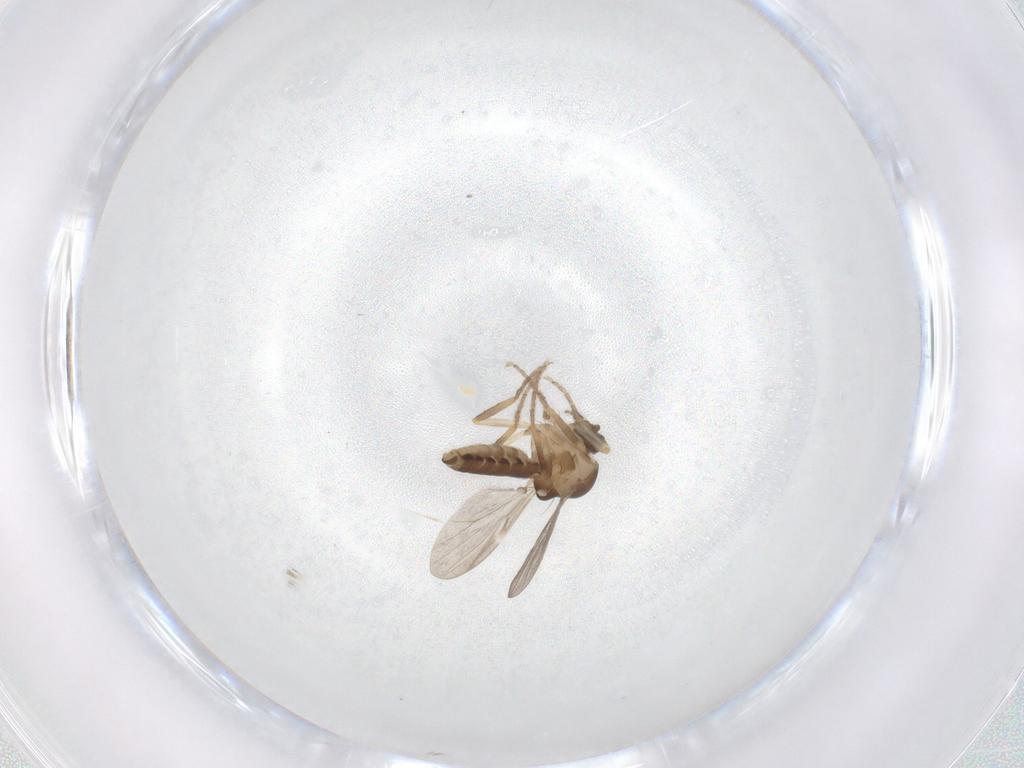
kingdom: Animalia
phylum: Arthropoda
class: Insecta
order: Diptera
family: Ceratopogonidae
